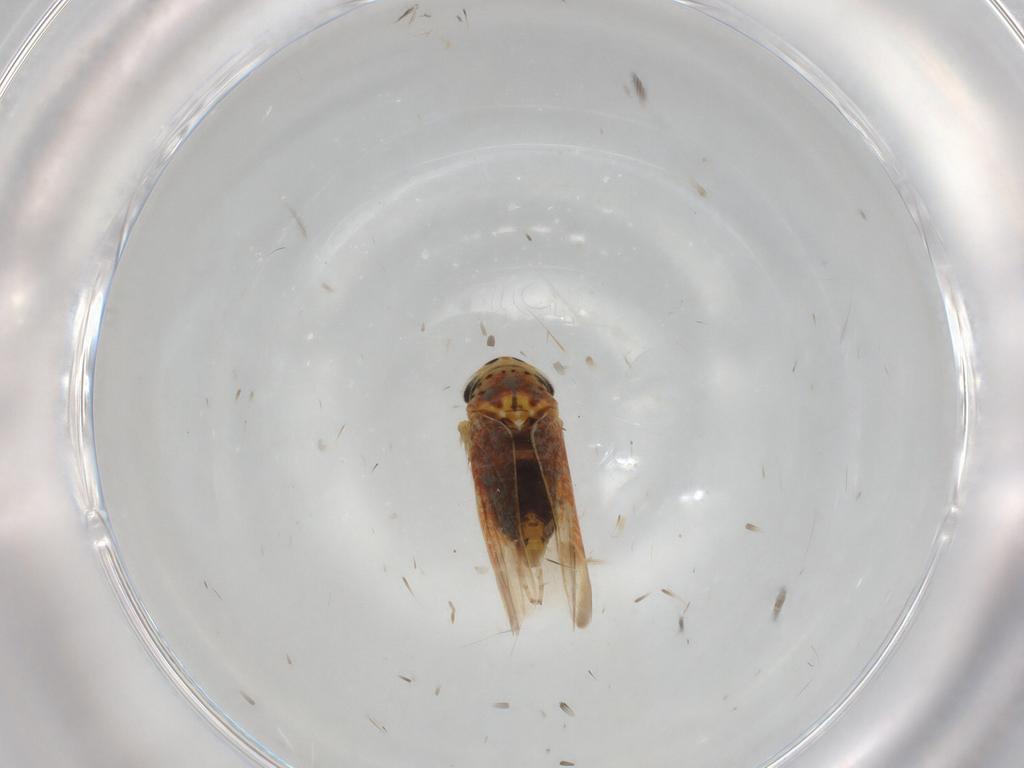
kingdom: Animalia
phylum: Arthropoda
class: Insecta
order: Hemiptera
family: Cicadellidae
